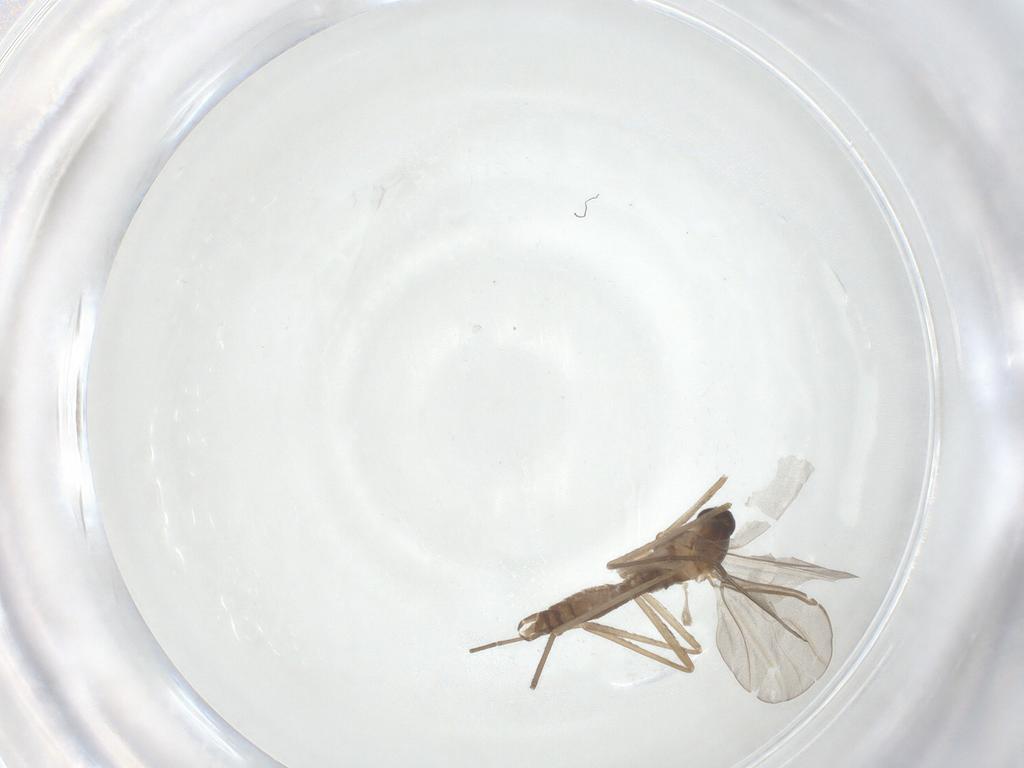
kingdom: Animalia
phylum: Arthropoda
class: Insecta
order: Diptera
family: Cecidomyiidae
